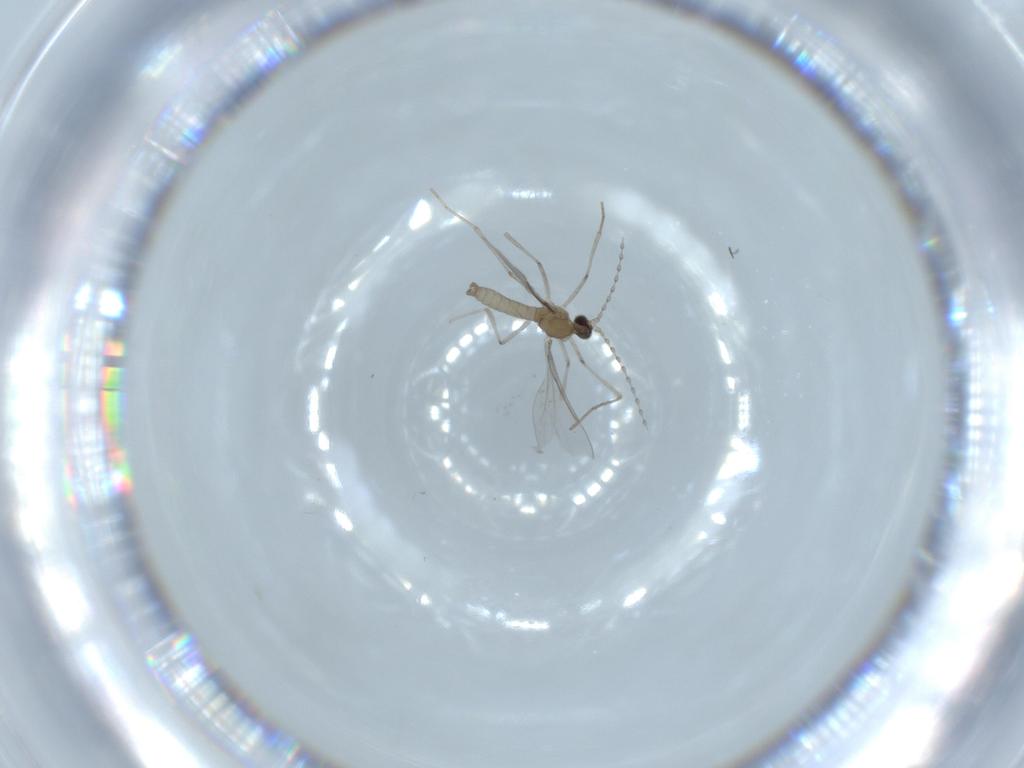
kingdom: Animalia
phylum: Arthropoda
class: Insecta
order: Diptera
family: Cecidomyiidae
